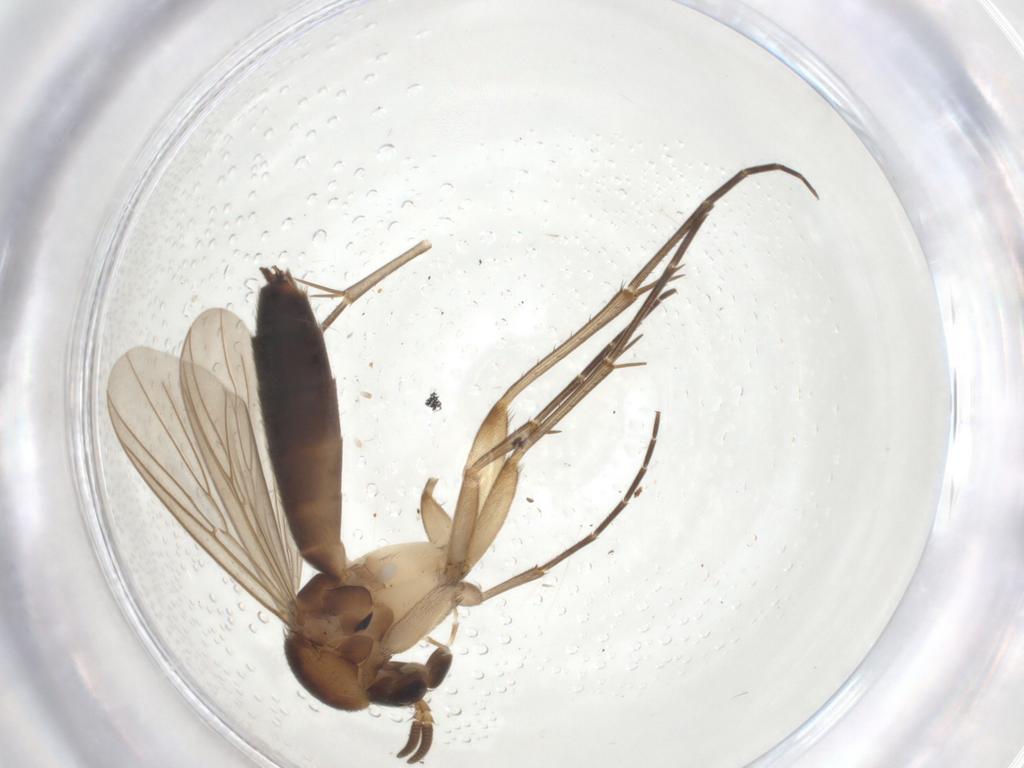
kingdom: Animalia
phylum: Arthropoda
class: Insecta
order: Diptera
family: Mycetophilidae
